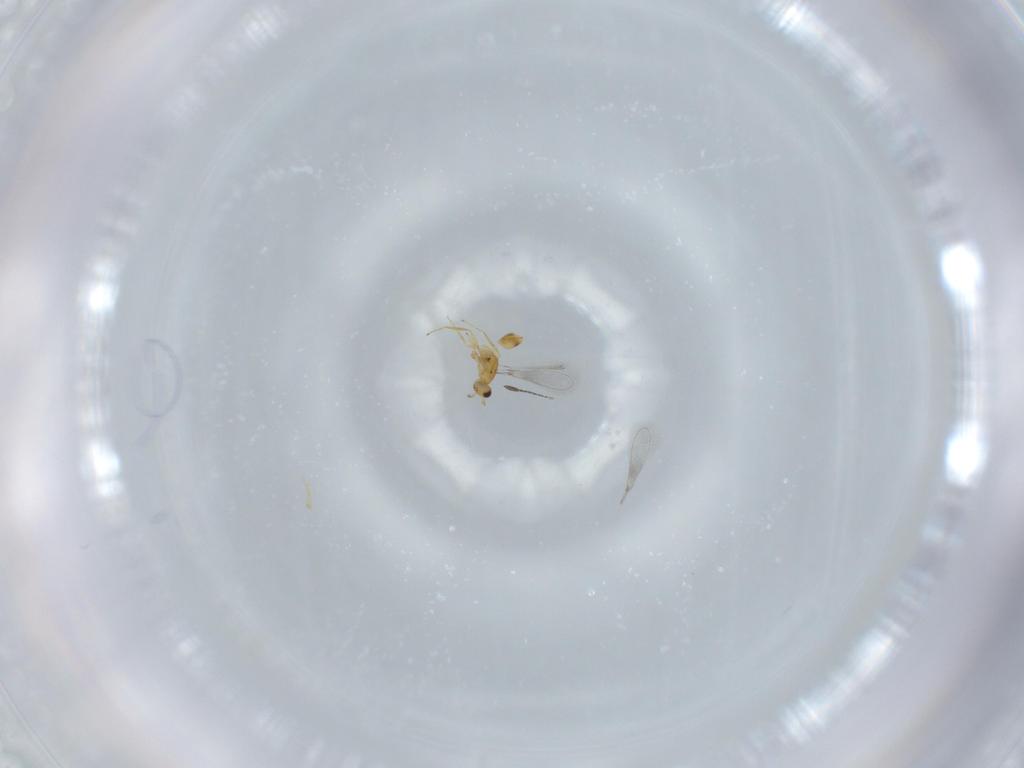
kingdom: Animalia
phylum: Arthropoda
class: Insecta
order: Hymenoptera
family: Mymaridae
